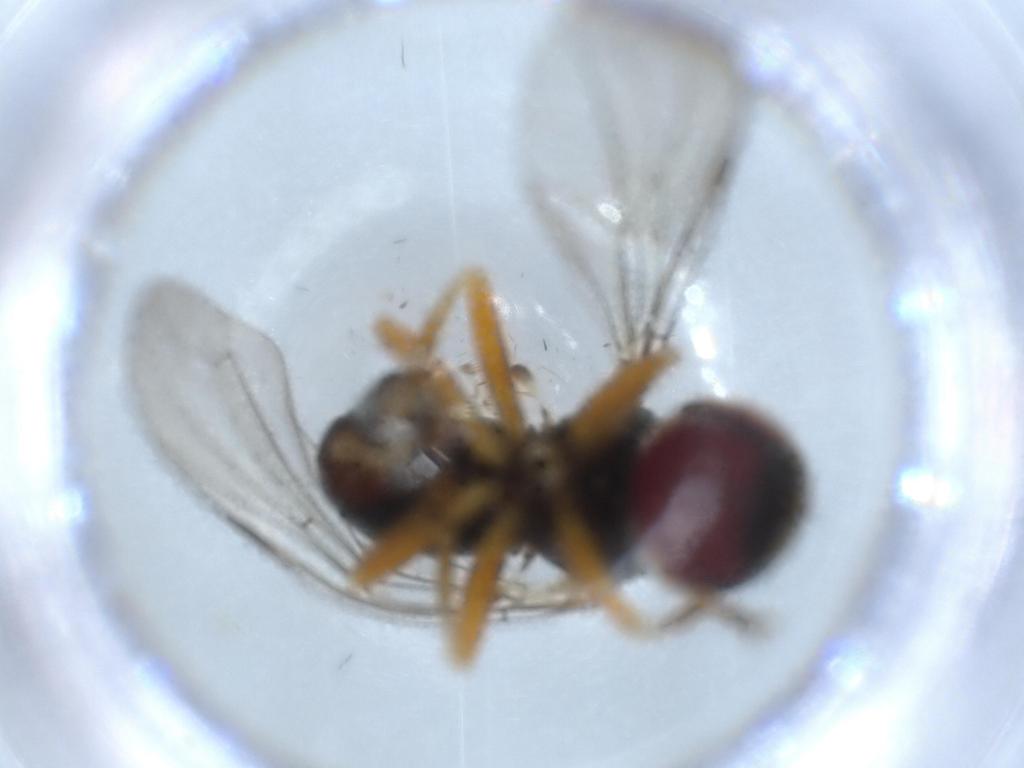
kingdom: Animalia
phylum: Arthropoda
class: Insecta
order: Diptera
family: Pipunculidae
